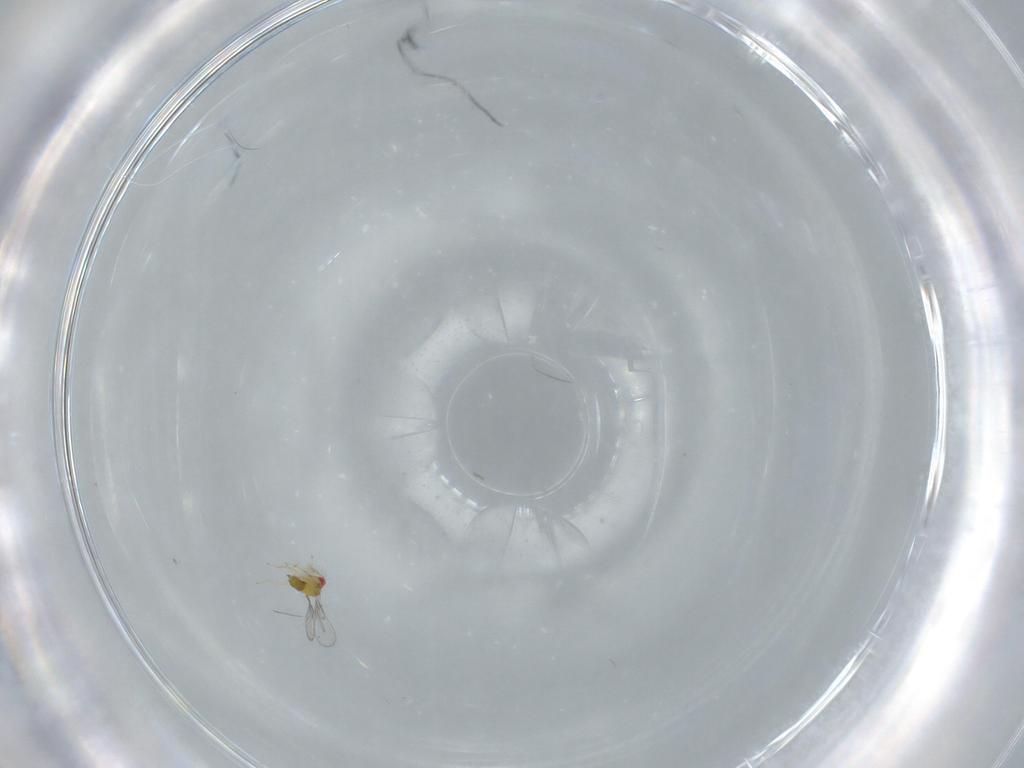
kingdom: Animalia
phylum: Arthropoda
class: Insecta
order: Hymenoptera
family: Trichogrammatidae
